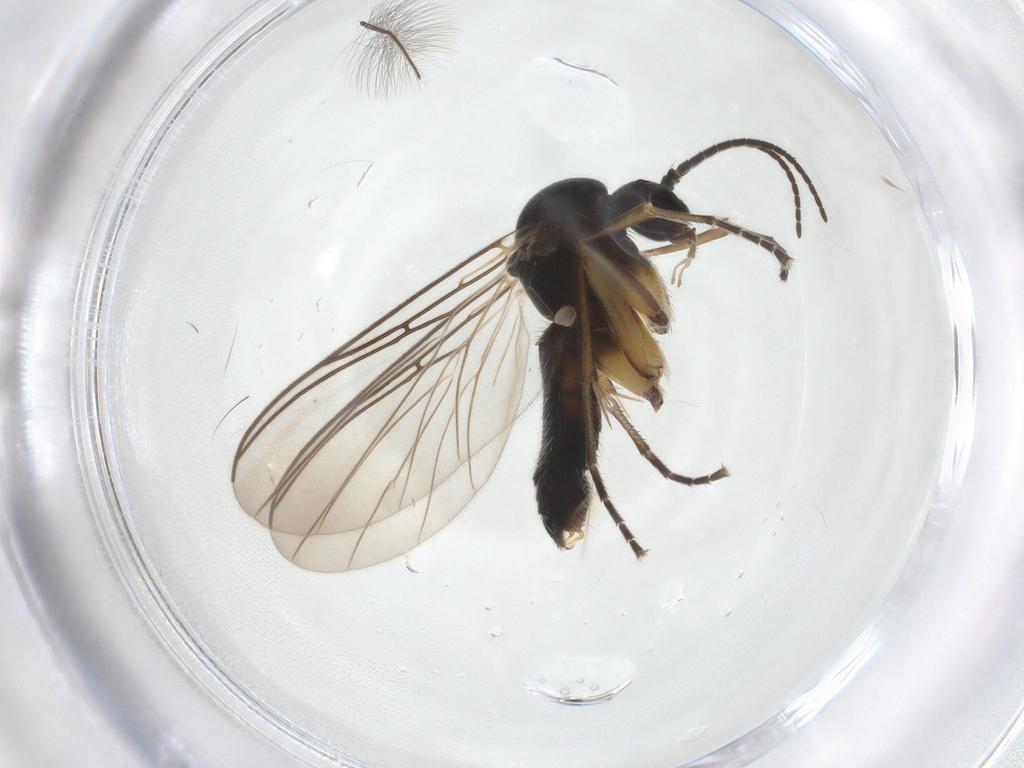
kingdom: Animalia
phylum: Arthropoda
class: Insecta
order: Diptera
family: Mycetophilidae
